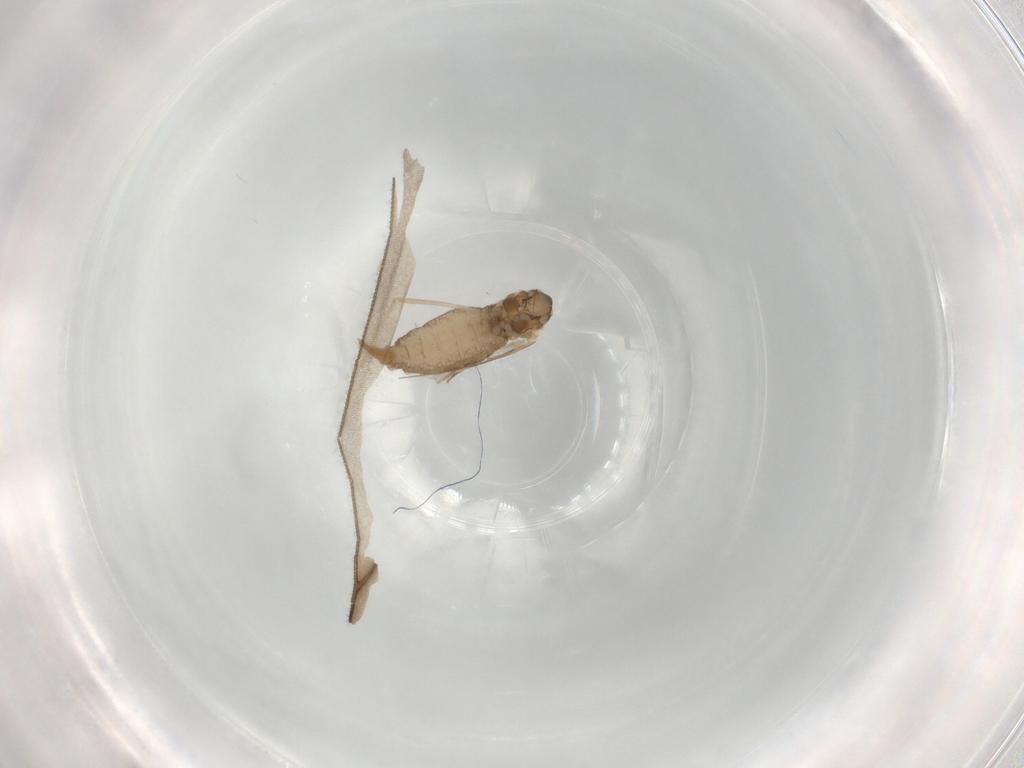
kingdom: Animalia
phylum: Arthropoda
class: Insecta
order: Diptera
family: Cecidomyiidae
